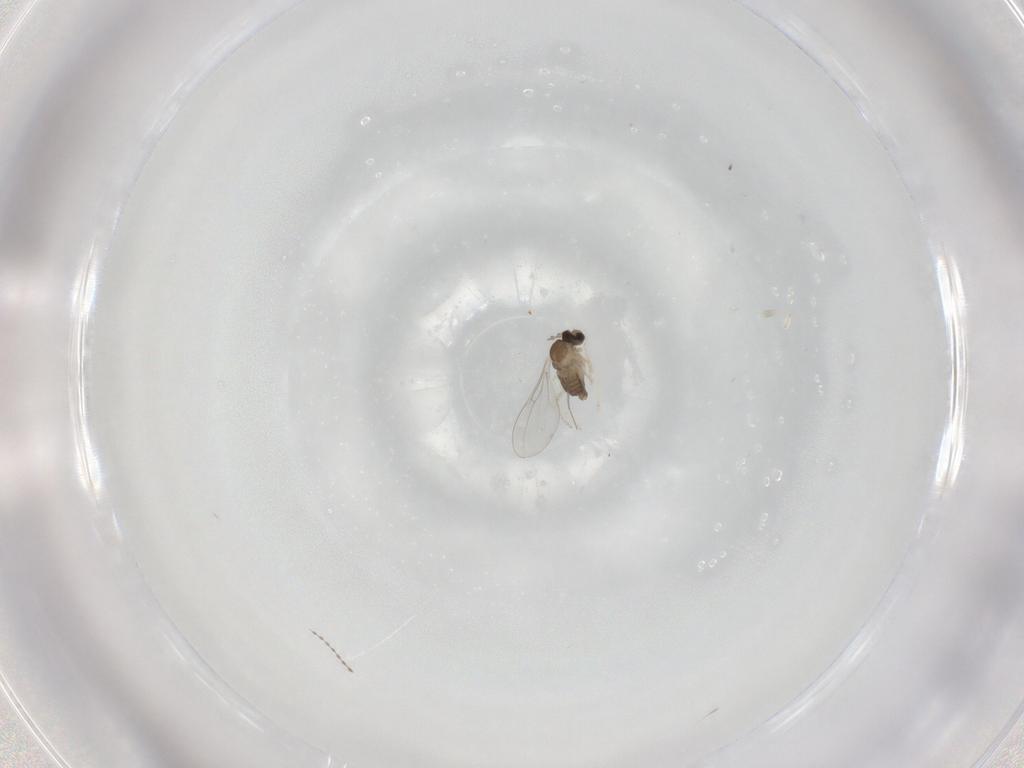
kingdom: Animalia
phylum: Arthropoda
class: Insecta
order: Diptera
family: Cecidomyiidae
